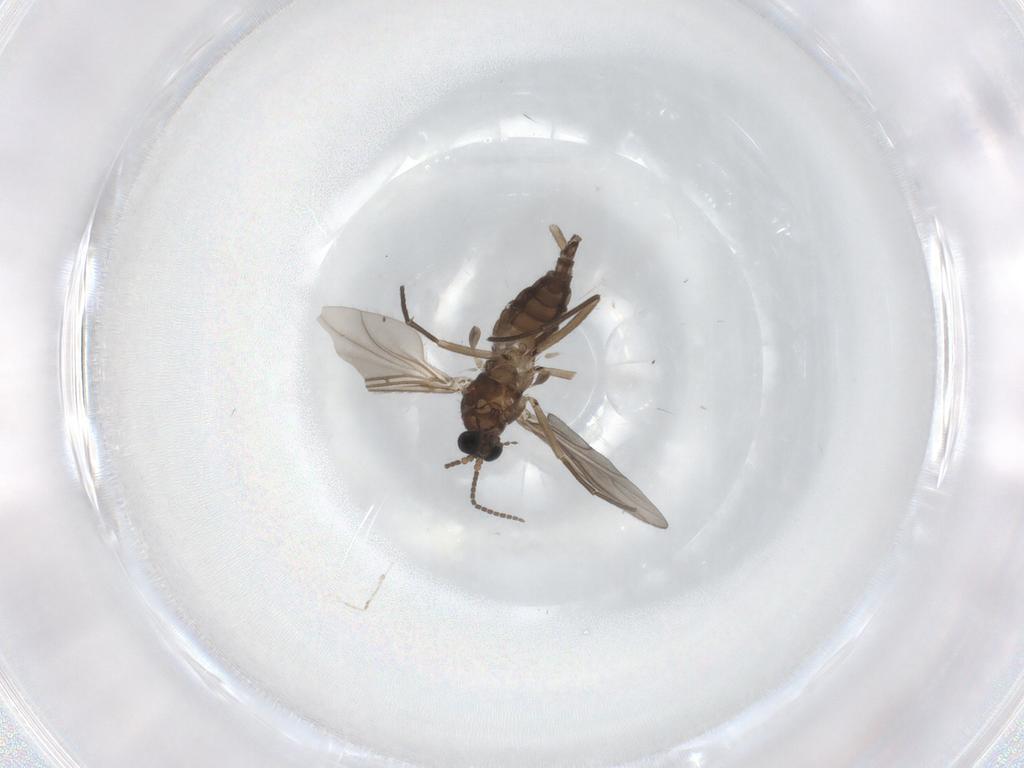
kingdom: Animalia
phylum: Arthropoda
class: Insecta
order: Diptera
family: Sciaridae
